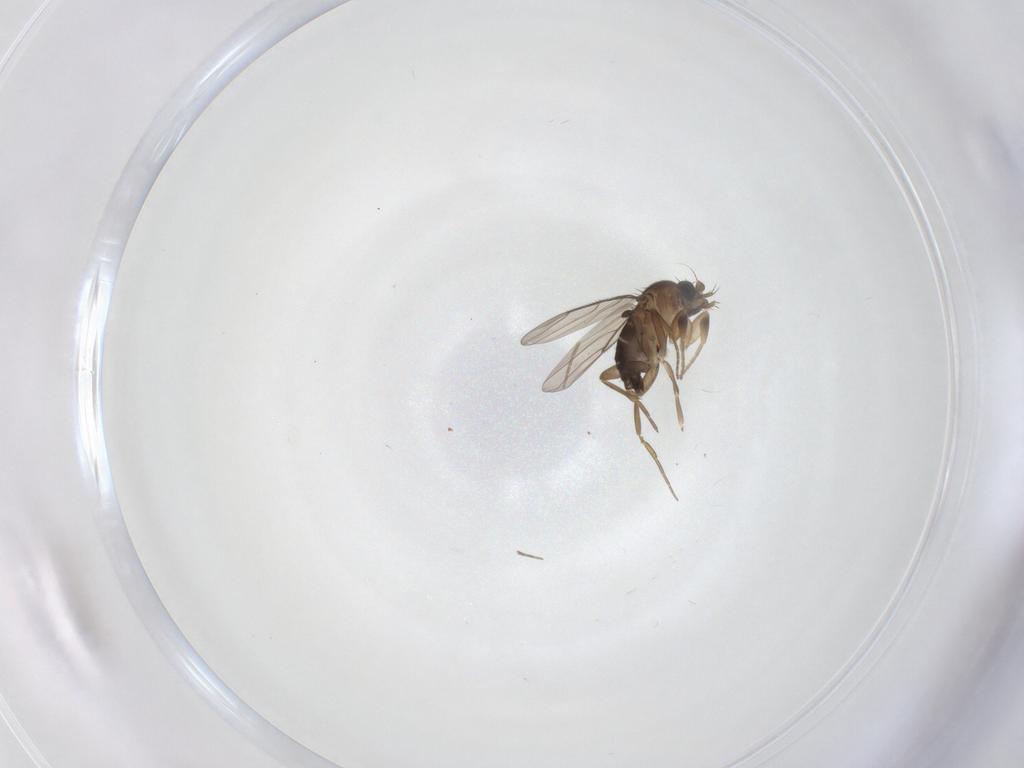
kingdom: Animalia
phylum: Arthropoda
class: Insecta
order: Diptera
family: Phoridae
